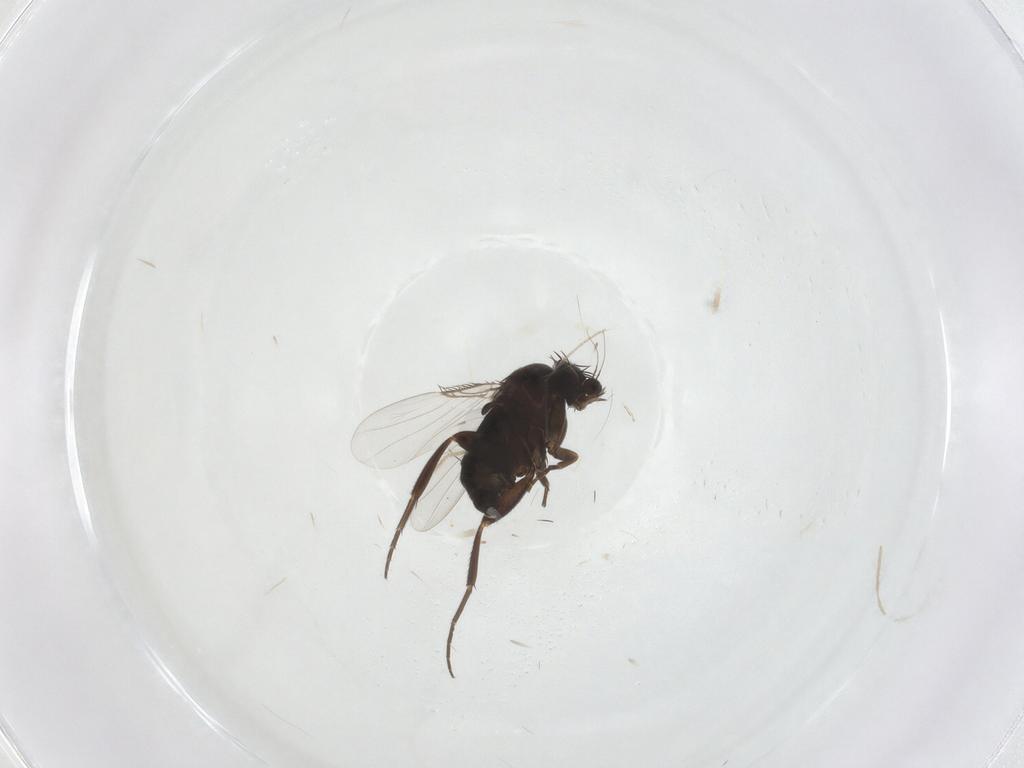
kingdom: Animalia
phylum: Arthropoda
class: Insecta
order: Diptera
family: Phoridae
